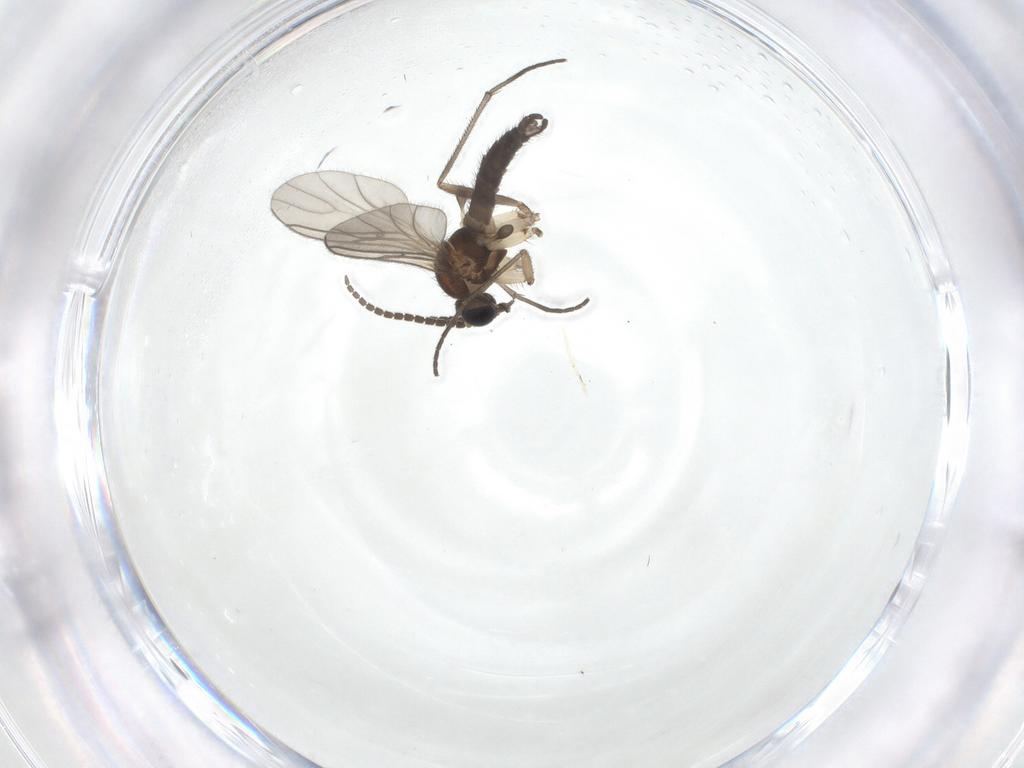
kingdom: Animalia
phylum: Arthropoda
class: Insecta
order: Diptera
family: Sciaridae
